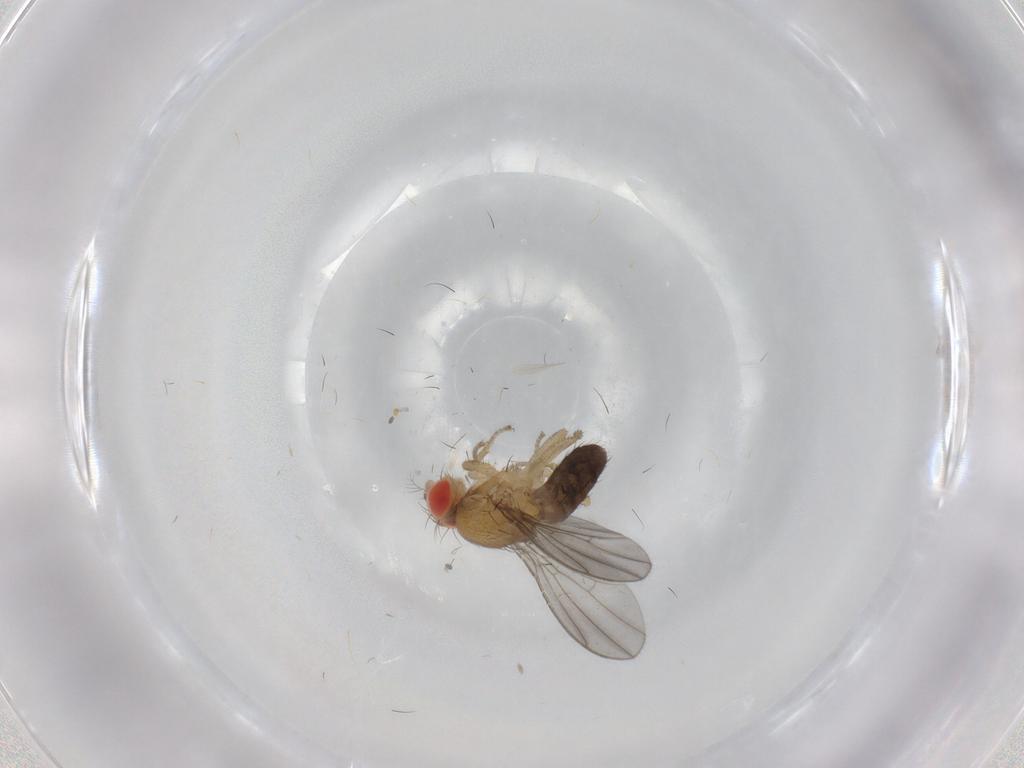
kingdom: Animalia
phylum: Arthropoda
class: Insecta
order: Diptera
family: Drosophilidae
